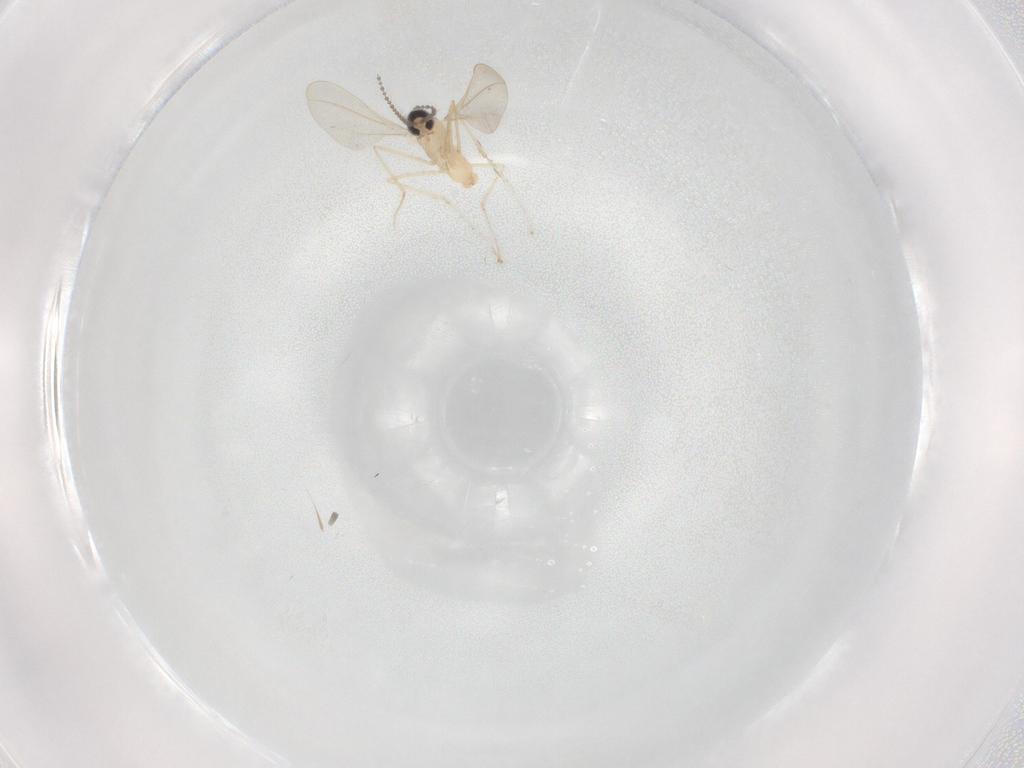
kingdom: Animalia
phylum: Arthropoda
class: Insecta
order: Diptera
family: Cecidomyiidae
